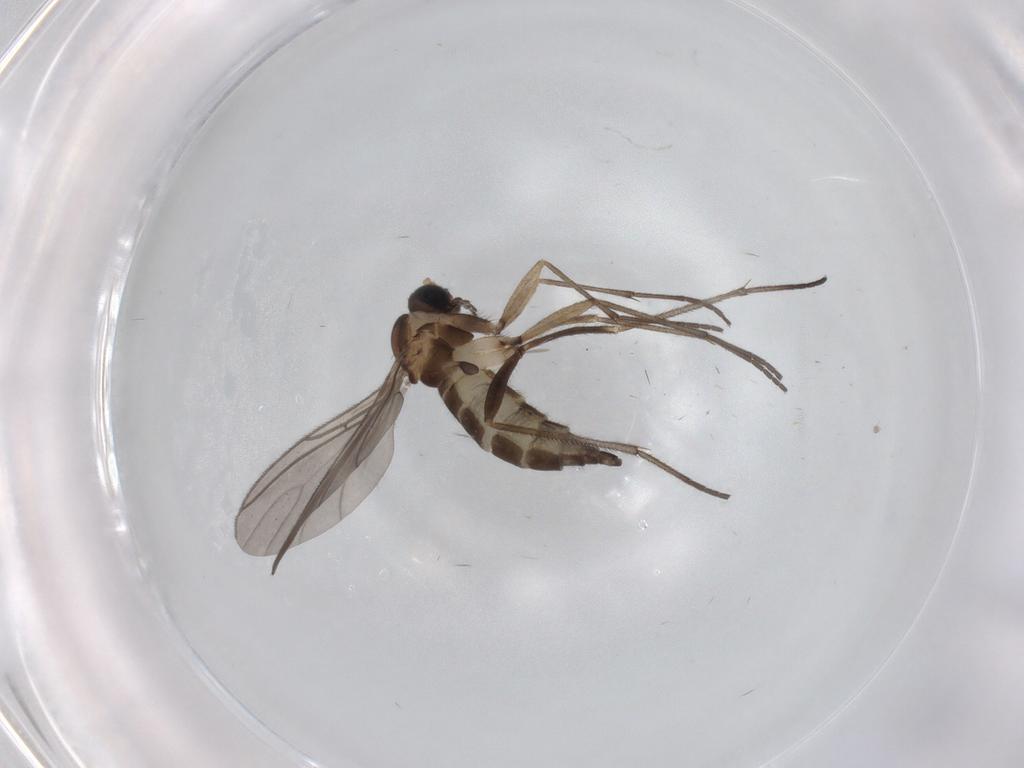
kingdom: Animalia
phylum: Arthropoda
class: Insecta
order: Diptera
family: Sciaridae
